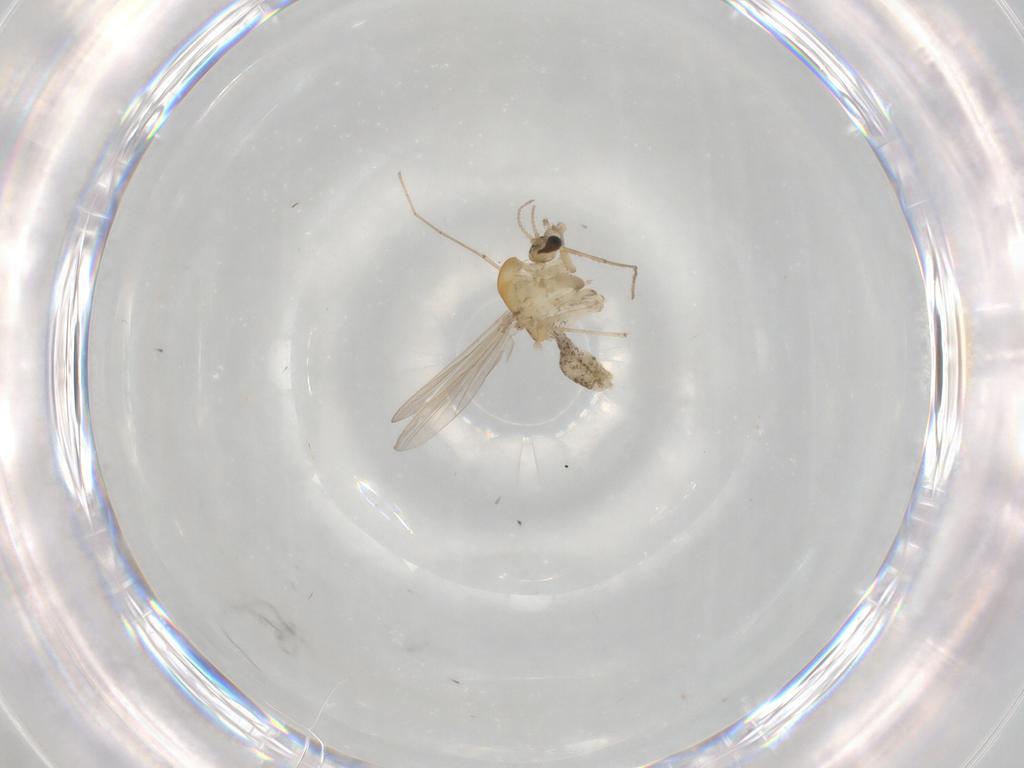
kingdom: Animalia
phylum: Arthropoda
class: Insecta
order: Diptera
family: Chironomidae
